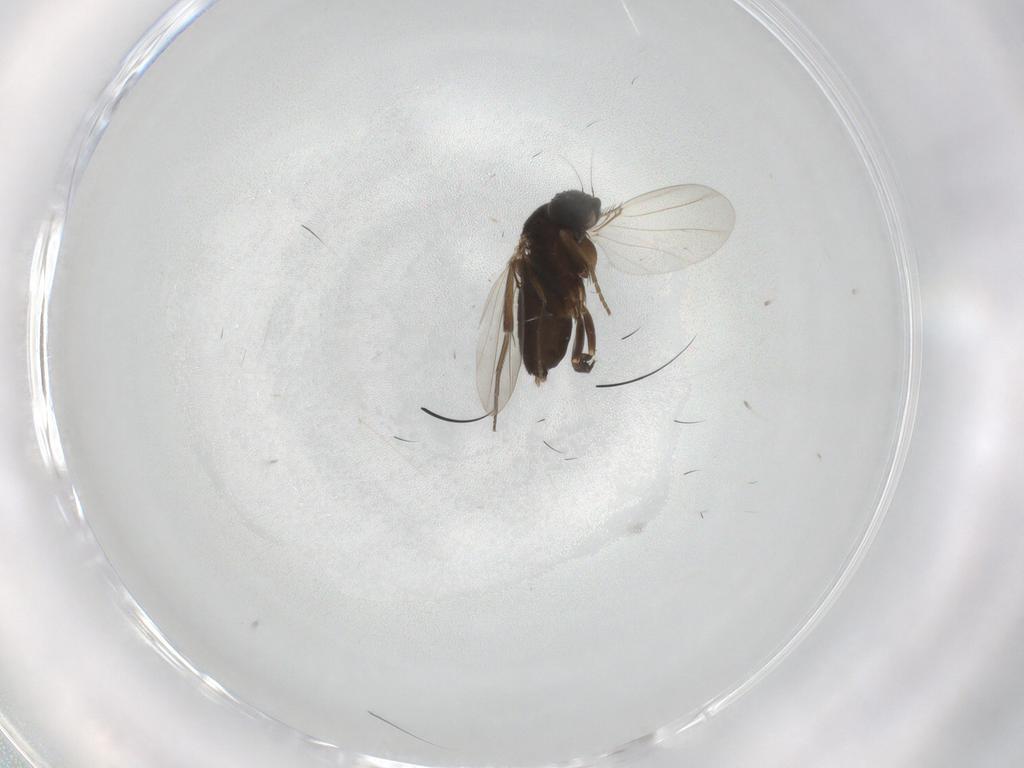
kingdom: Animalia
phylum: Arthropoda
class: Insecta
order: Diptera
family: Phoridae
